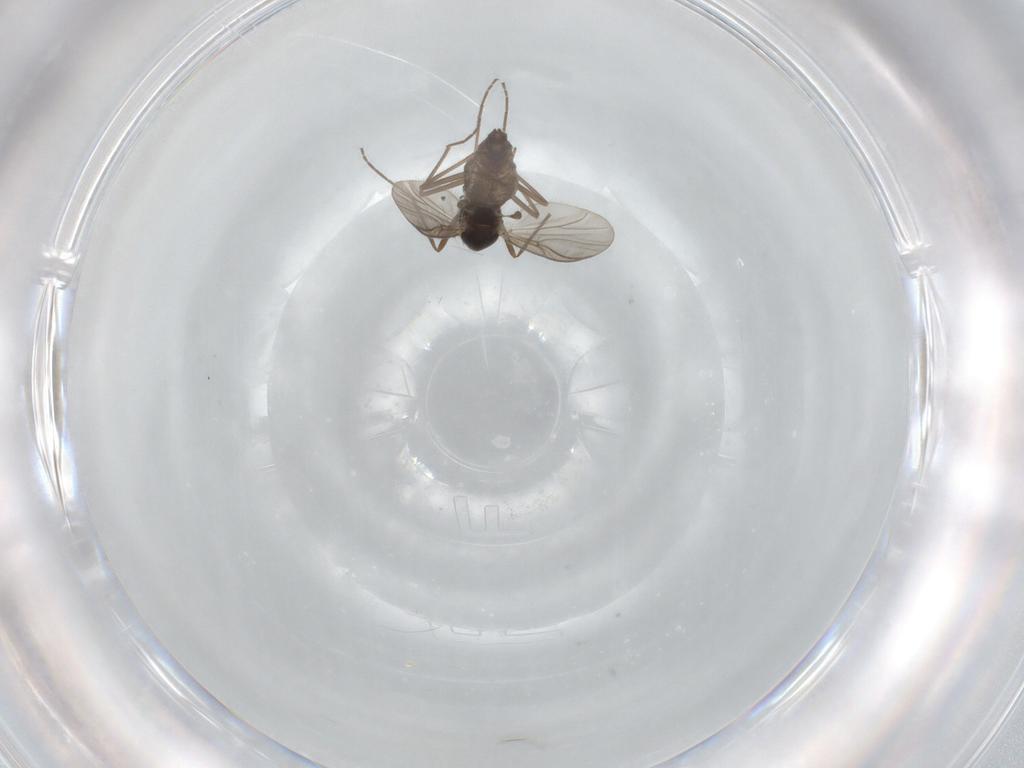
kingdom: Animalia
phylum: Arthropoda
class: Insecta
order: Diptera
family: Chironomidae
